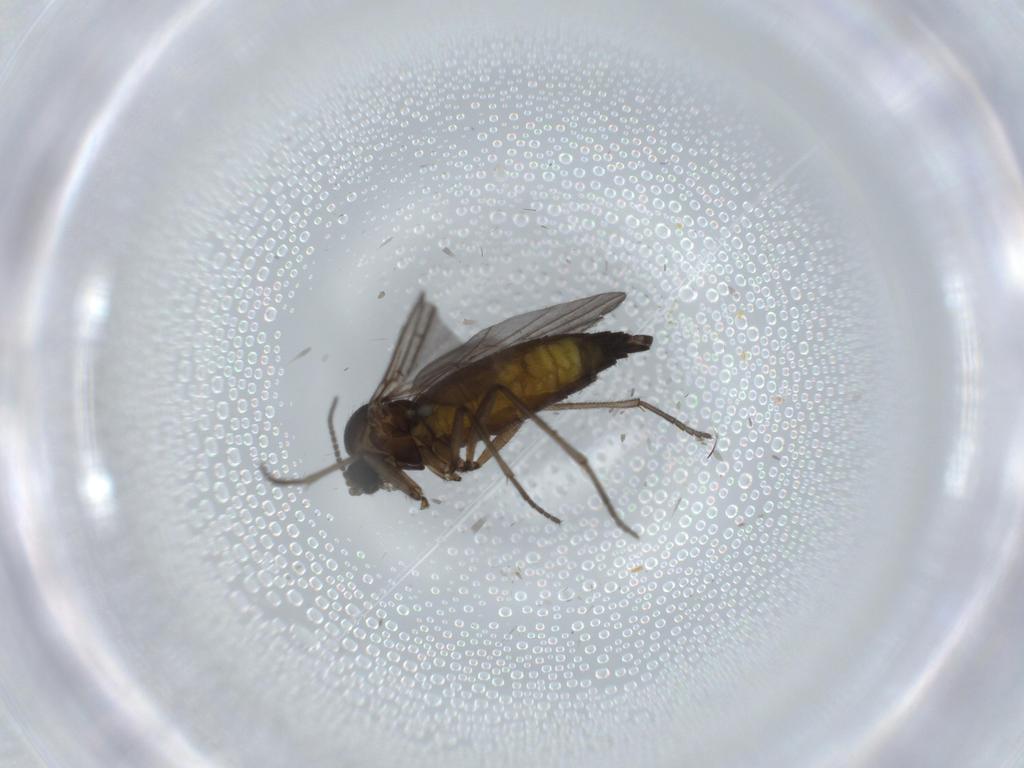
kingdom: Animalia
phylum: Arthropoda
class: Insecta
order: Diptera
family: Sciaridae
